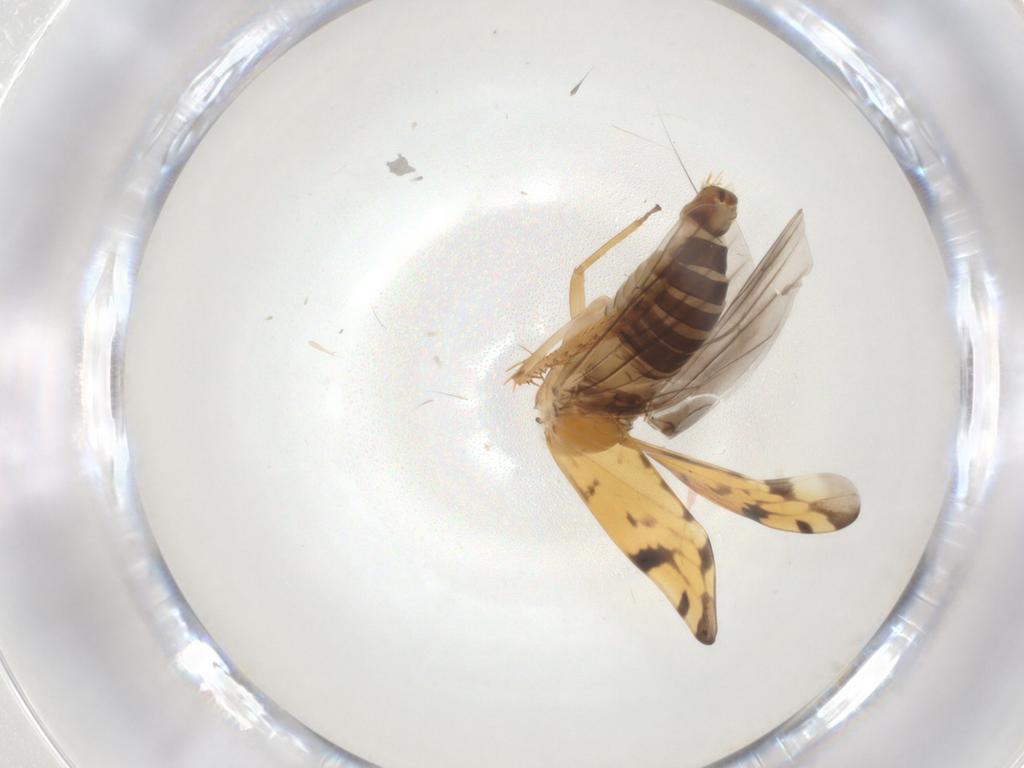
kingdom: Animalia
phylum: Arthropoda
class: Insecta
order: Hemiptera
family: Cicadellidae
